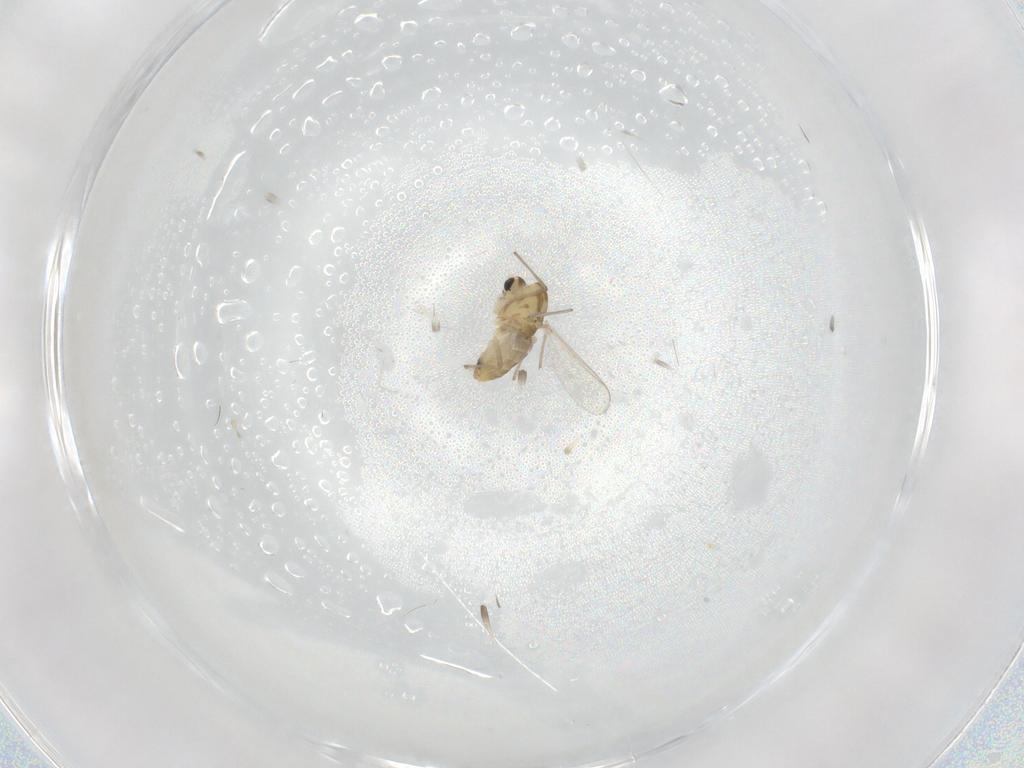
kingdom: Animalia
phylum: Arthropoda
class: Insecta
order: Diptera
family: Chironomidae
